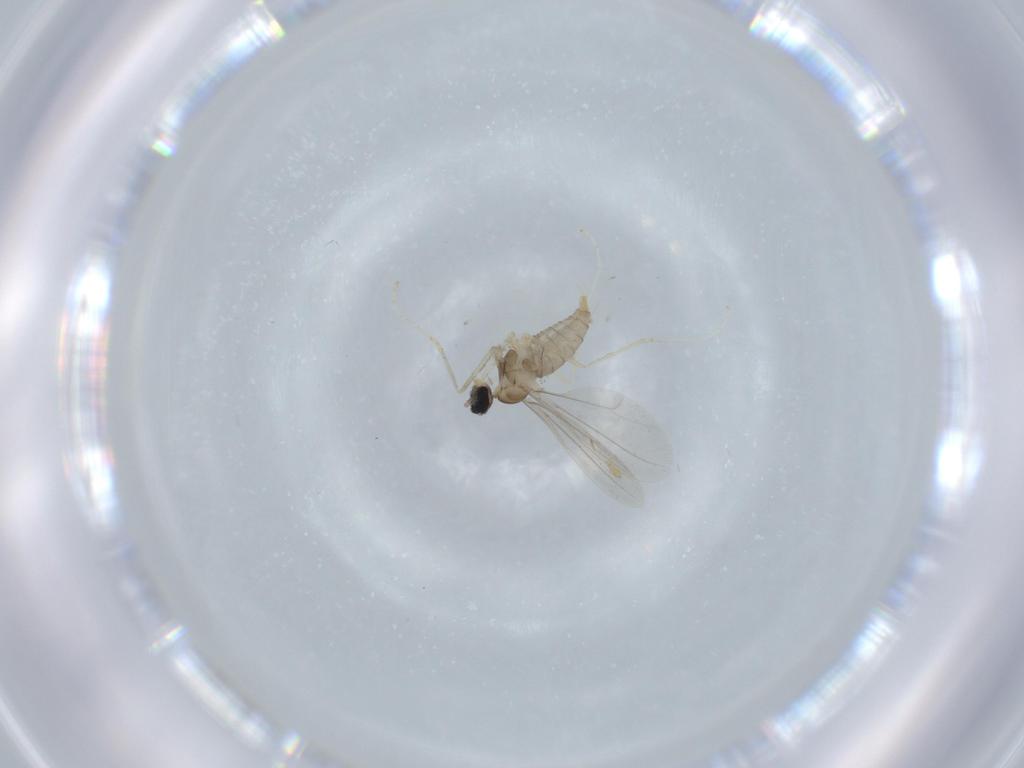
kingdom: Animalia
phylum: Arthropoda
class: Insecta
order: Diptera
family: Cecidomyiidae
